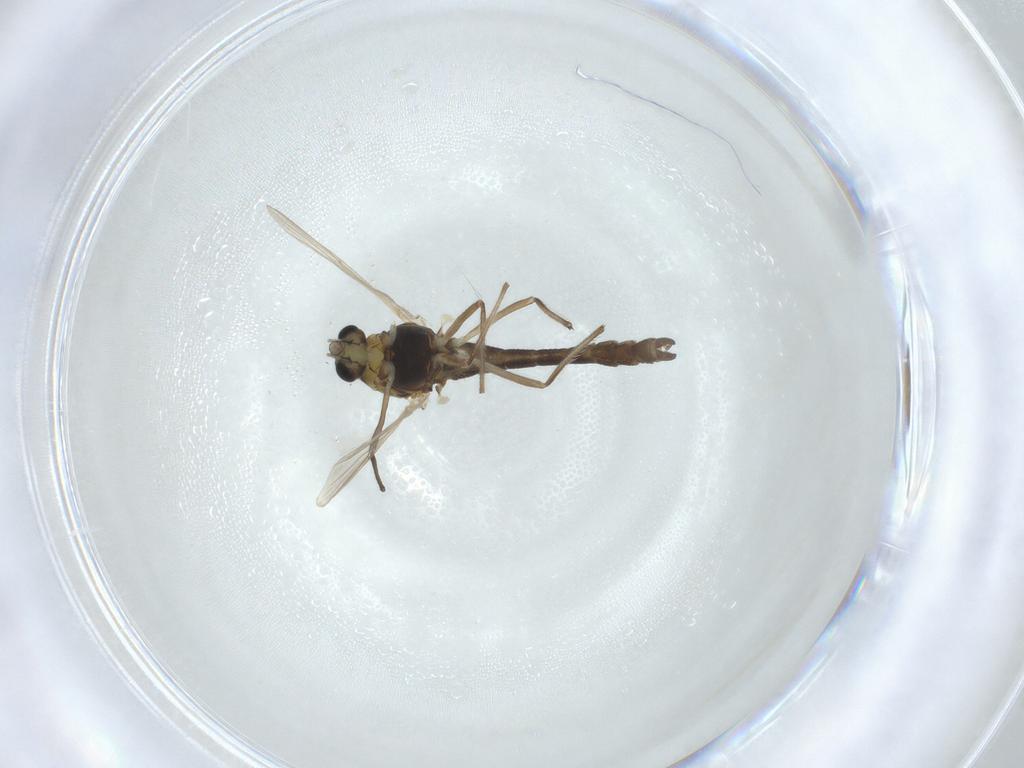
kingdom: Animalia
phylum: Arthropoda
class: Insecta
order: Diptera
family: Chironomidae
